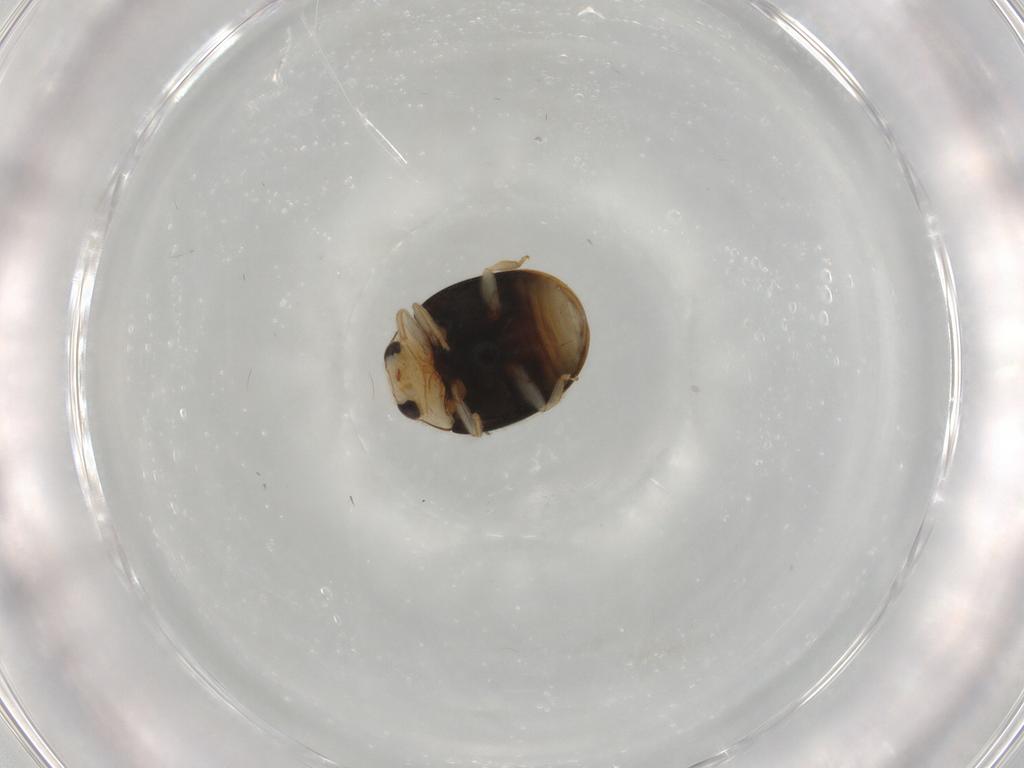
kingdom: Animalia
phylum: Arthropoda
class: Insecta
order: Coleoptera
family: Coccinellidae
